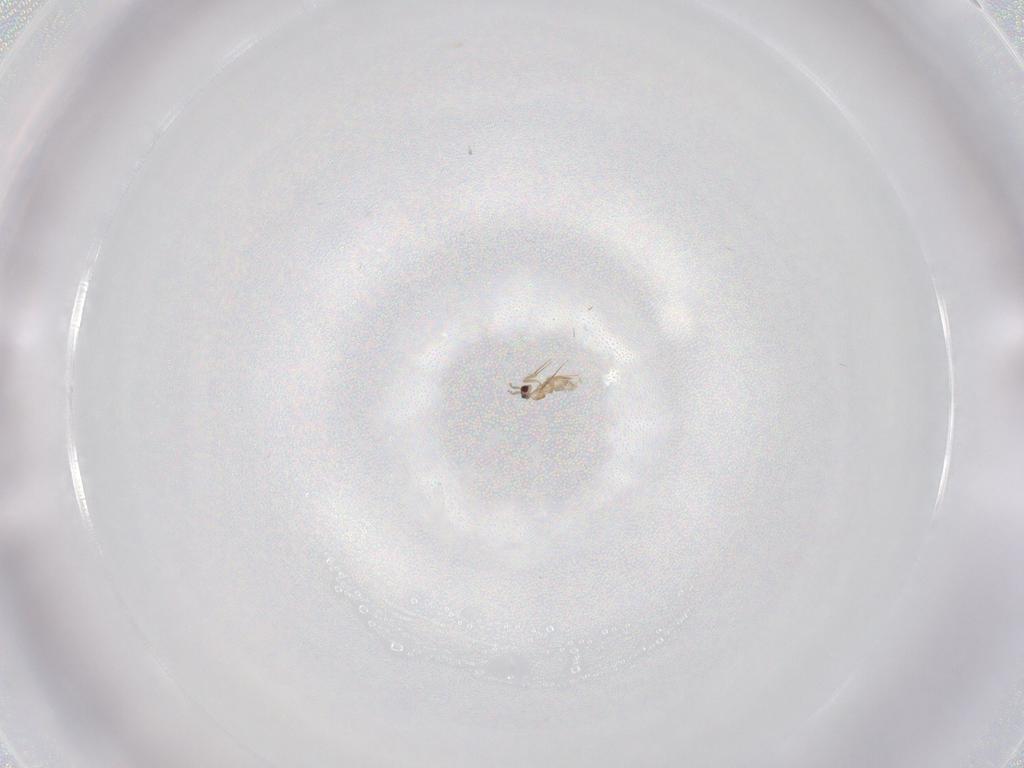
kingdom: Animalia
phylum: Arthropoda
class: Insecta
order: Hymenoptera
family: Mymaridae
